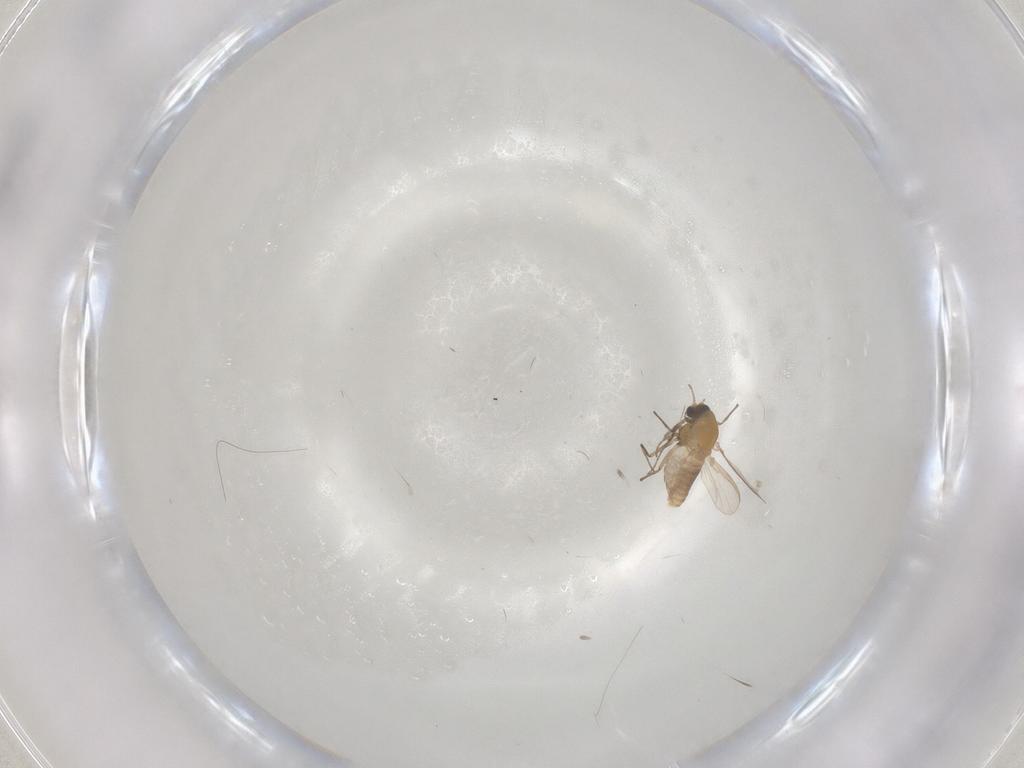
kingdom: Animalia
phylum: Arthropoda
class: Insecta
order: Diptera
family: Chironomidae
